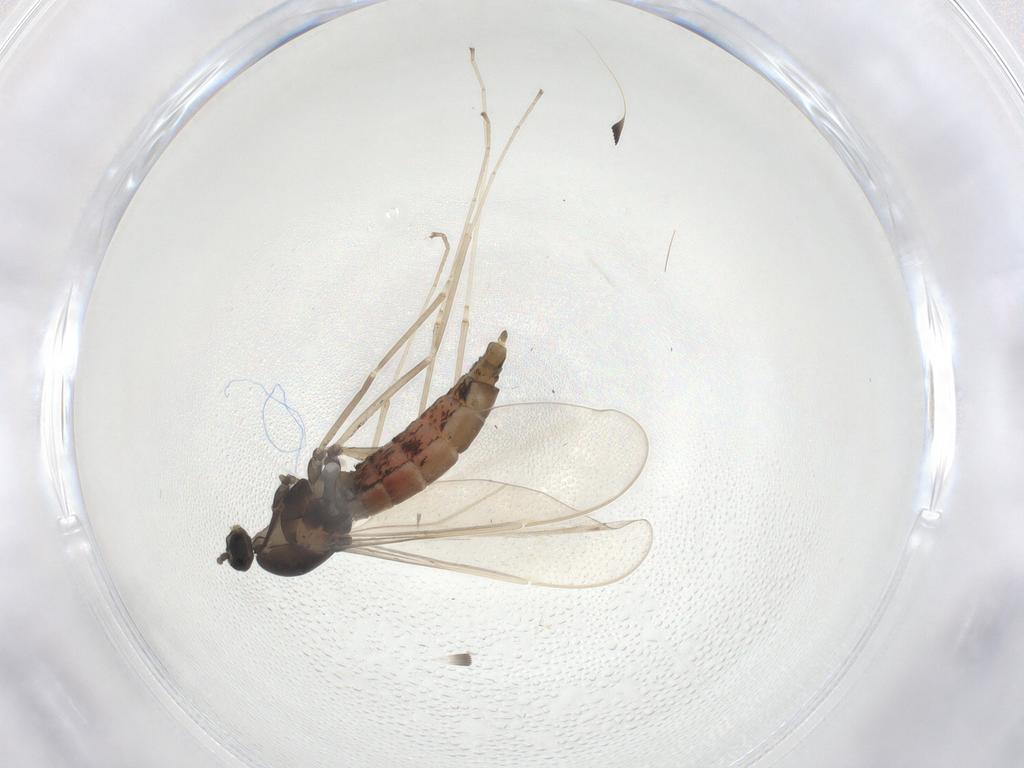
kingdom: Animalia
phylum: Arthropoda
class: Insecta
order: Diptera
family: Cecidomyiidae
